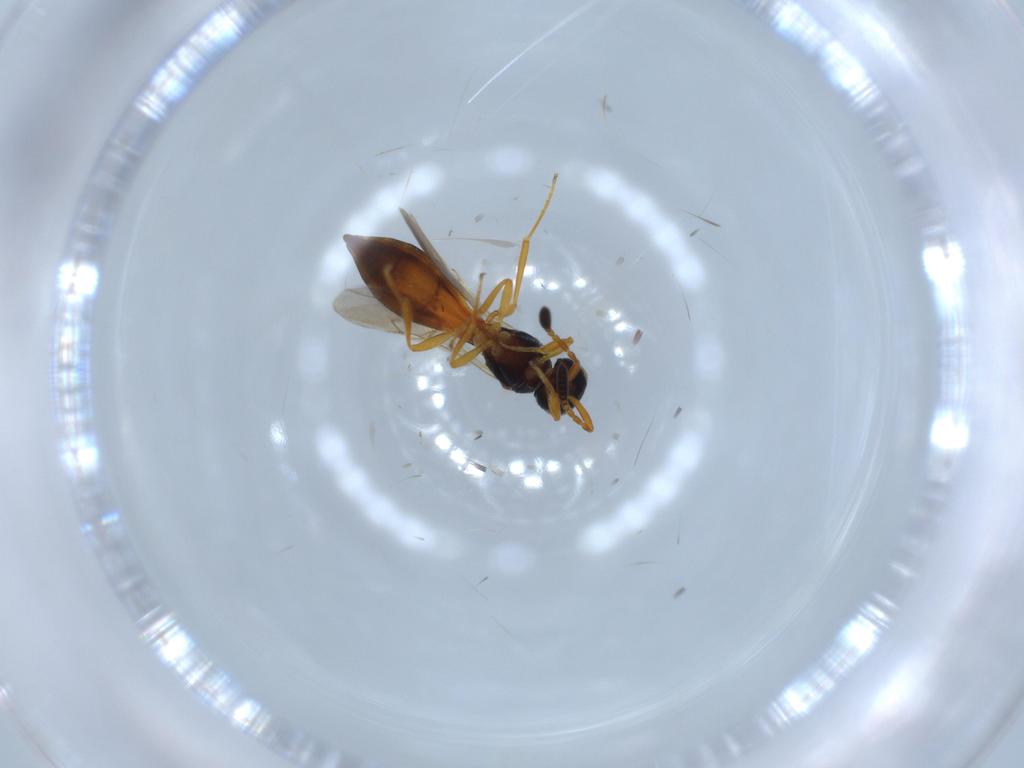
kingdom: Animalia
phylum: Arthropoda
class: Insecta
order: Hymenoptera
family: Scelionidae
